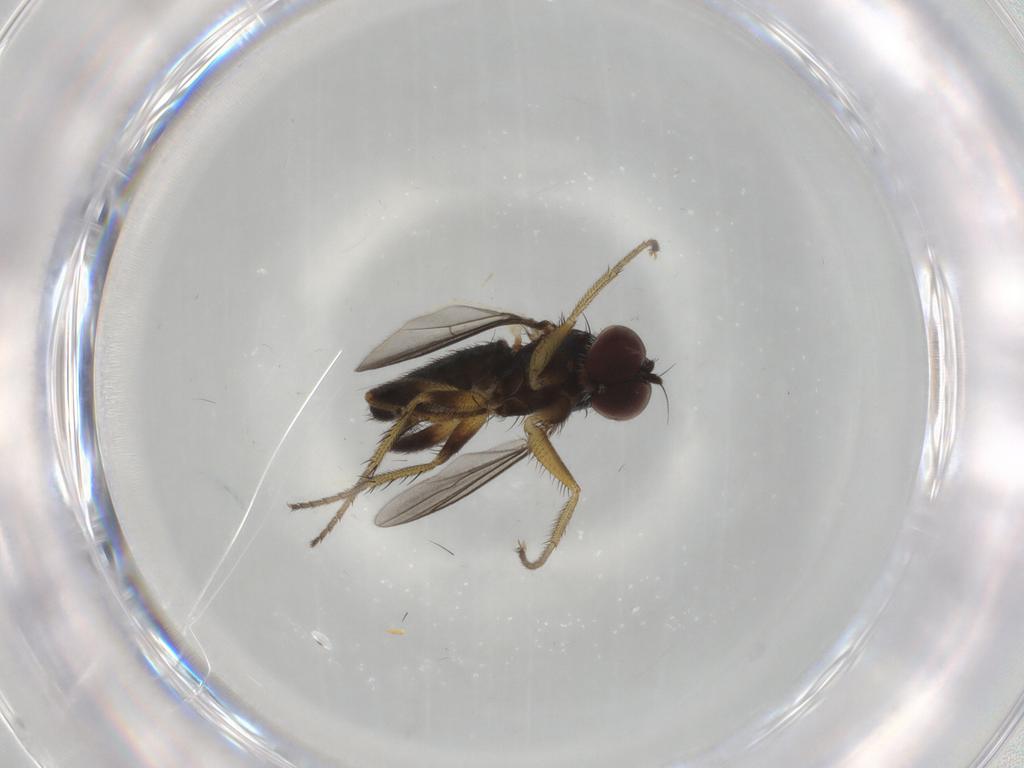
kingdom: Animalia
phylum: Arthropoda
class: Insecta
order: Diptera
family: Dolichopodidae
